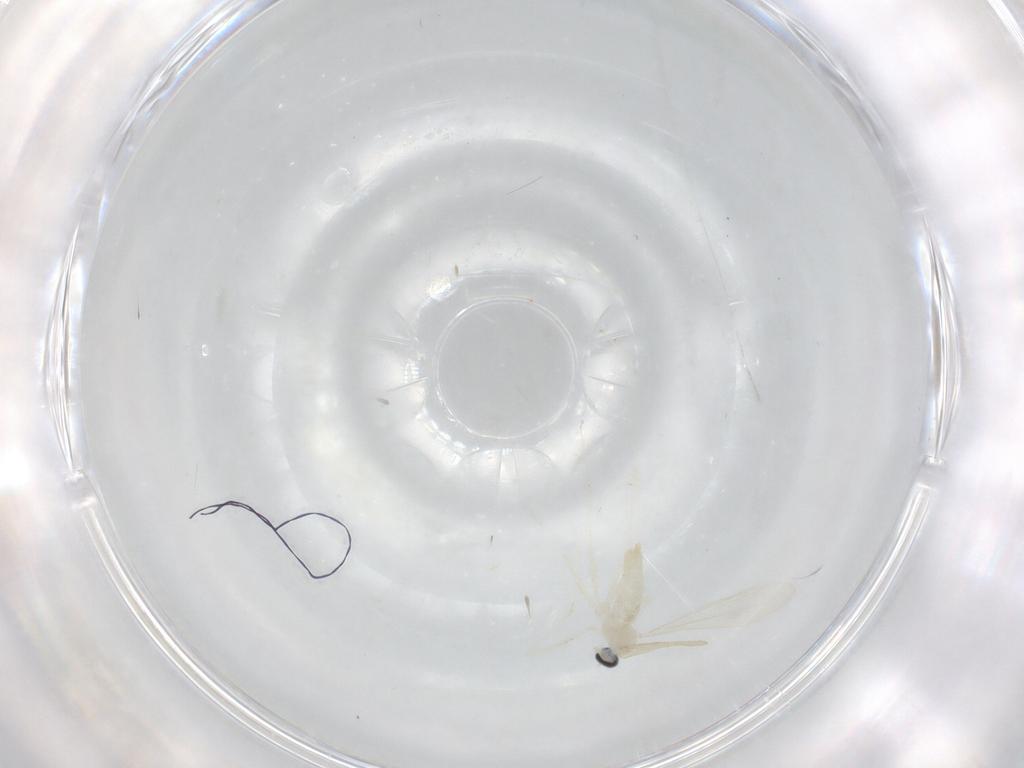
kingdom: Animalia
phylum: Arthropoda
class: Insecta
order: Diptera
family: Cecidomyiidae
